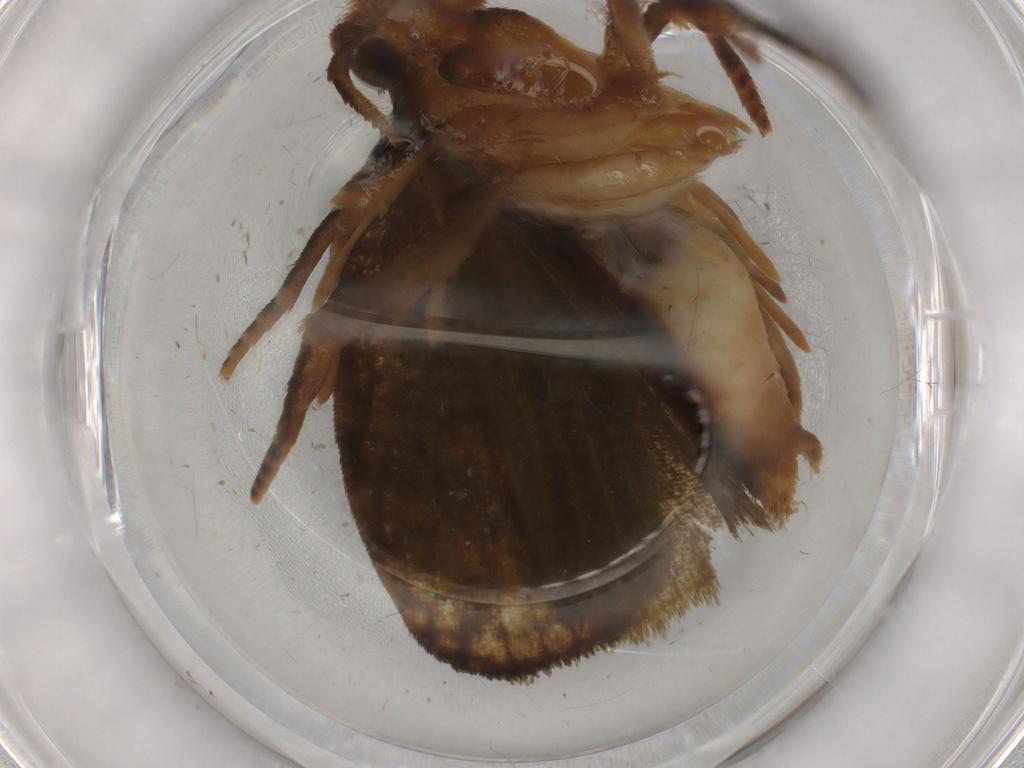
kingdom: Animalia
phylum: Arthropoda
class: Insecta
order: Lepidoptera
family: Geometridae
